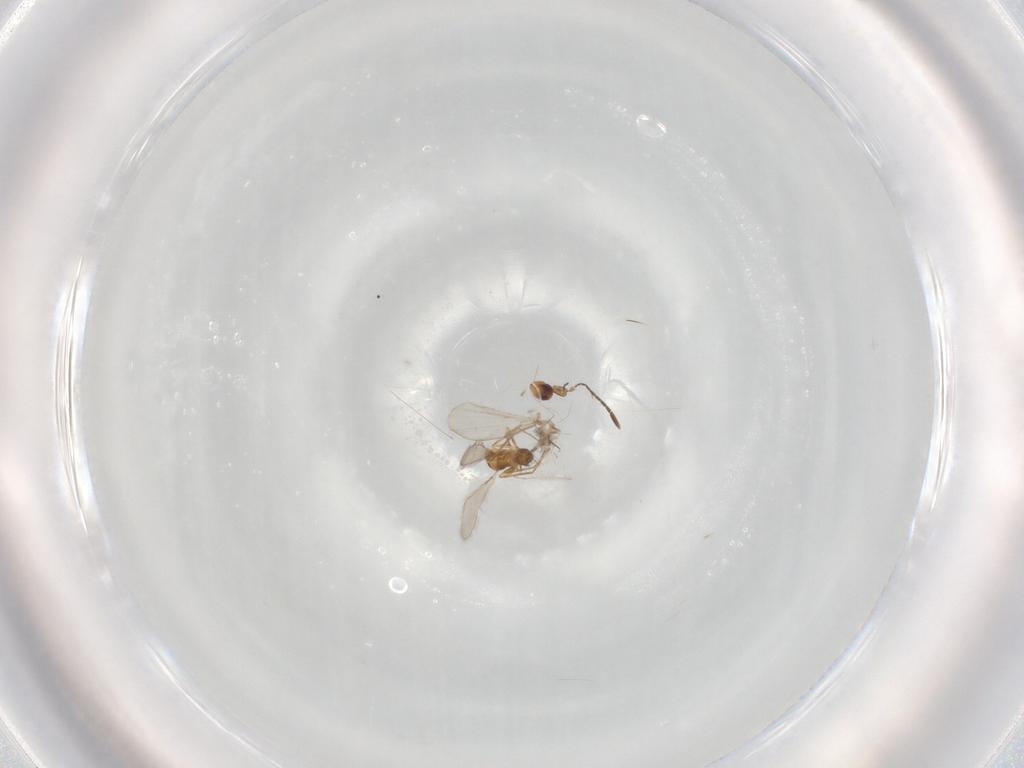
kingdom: Animalia
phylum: Arthropoda
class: Insecta
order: Hymenoptera
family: Mymaridae
